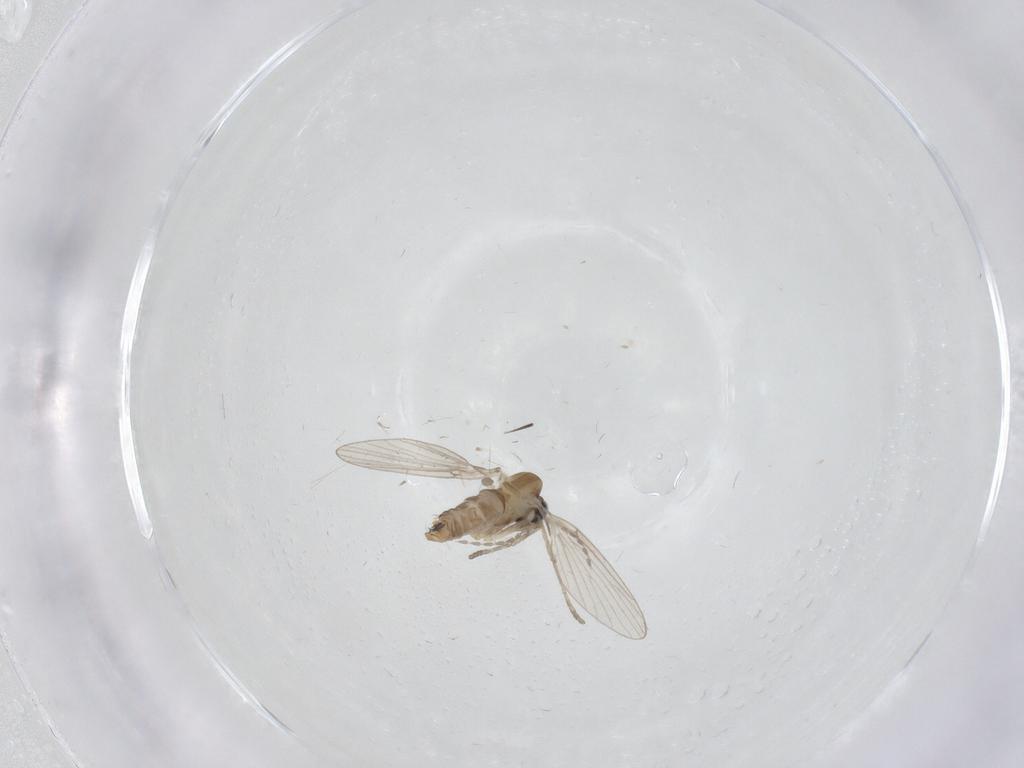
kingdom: Animalia
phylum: Arthropoda
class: Insecta
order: Diptera
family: Psychodidae
